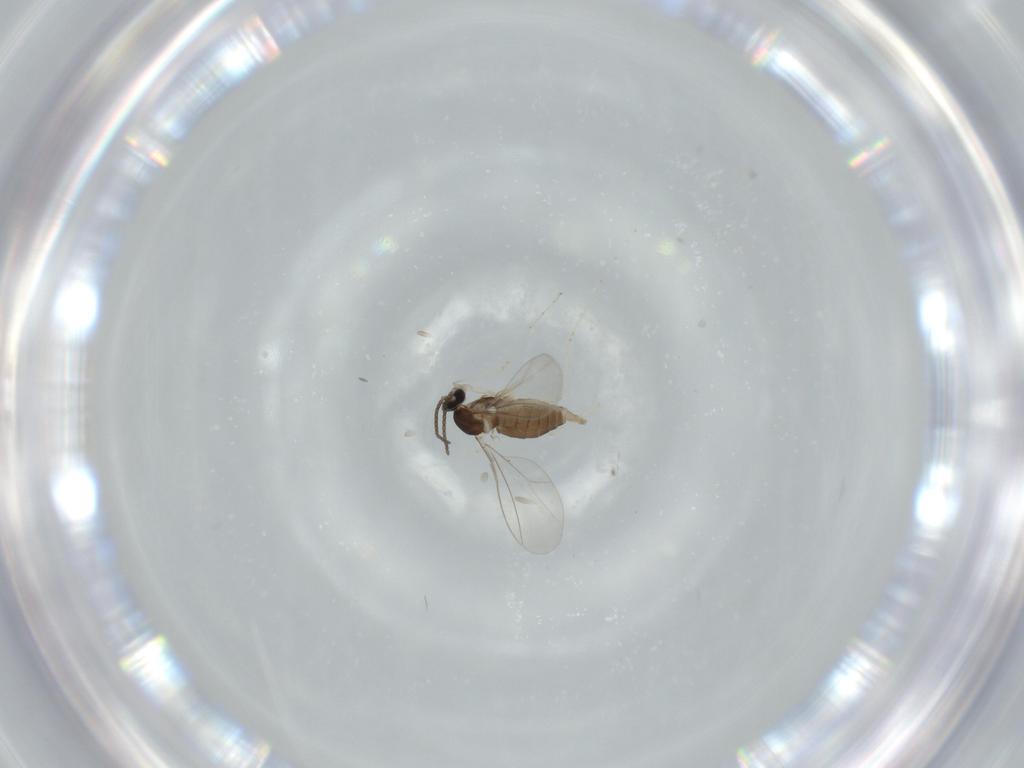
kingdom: Animalia
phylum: Arthropoda
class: Insecta
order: Diptera
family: Cecidomyiidae
